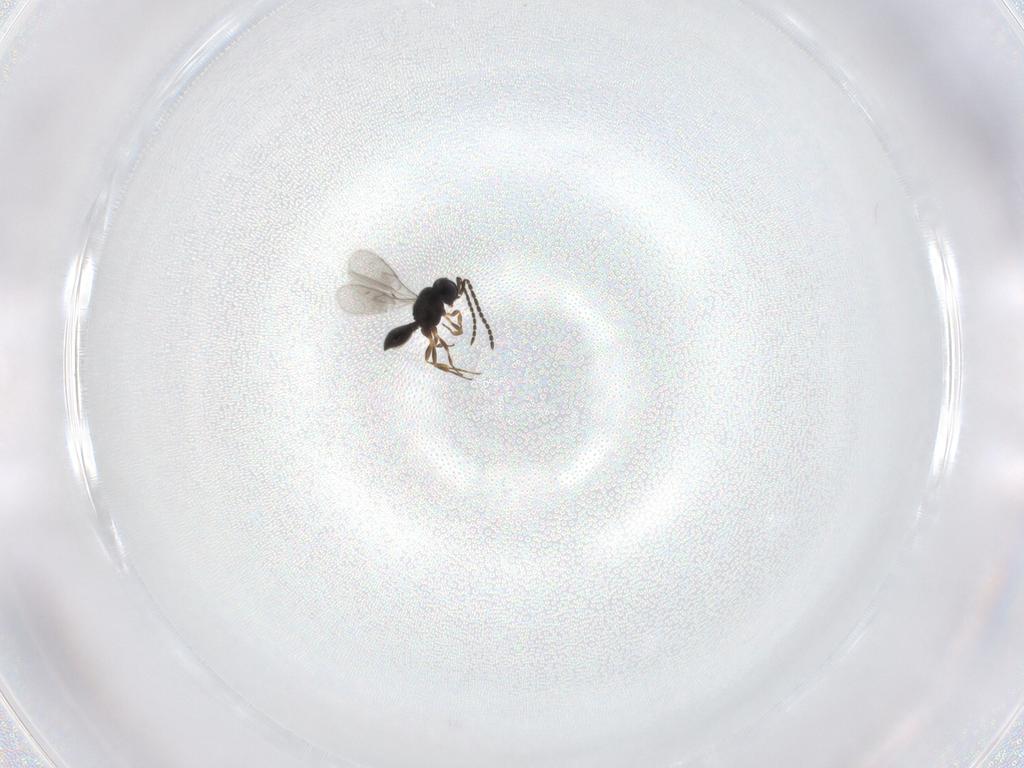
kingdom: Animalia
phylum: Arthropoda
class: Insecta
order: Hymenoptera
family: Scelionidae
